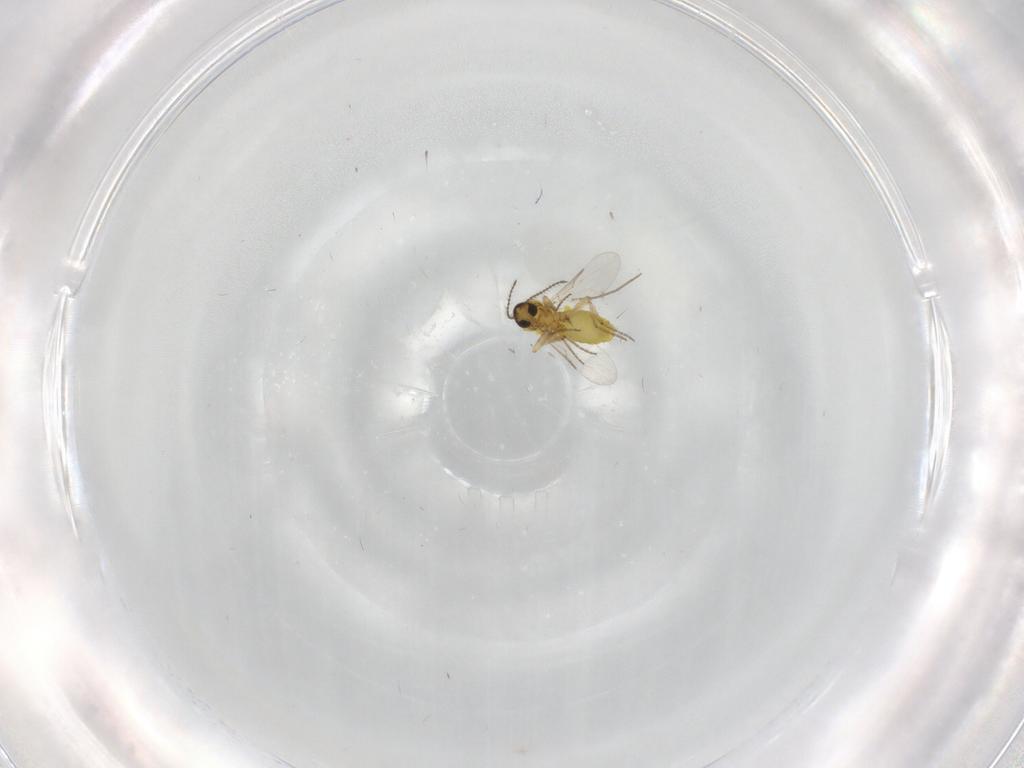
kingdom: Animalia
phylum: Arthropoda
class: Insecta
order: Diptera
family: Ceratopogonidae
